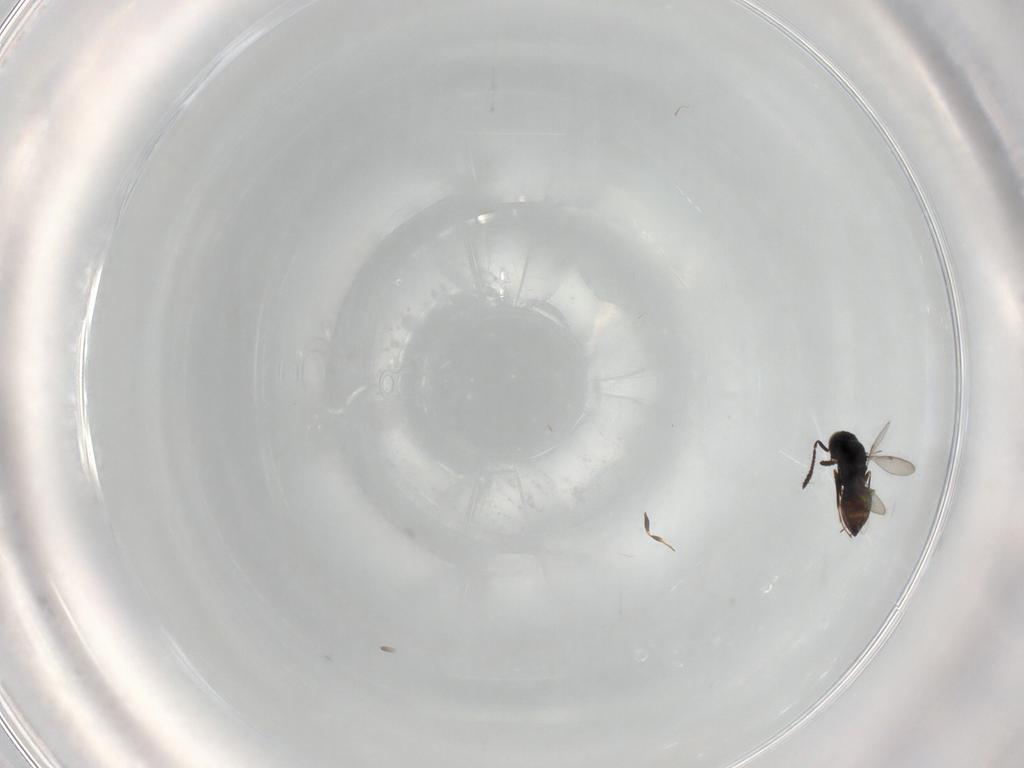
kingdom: Animalia
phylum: Arthropoda
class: Insecta
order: Hymenoptera
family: Scelionidae
